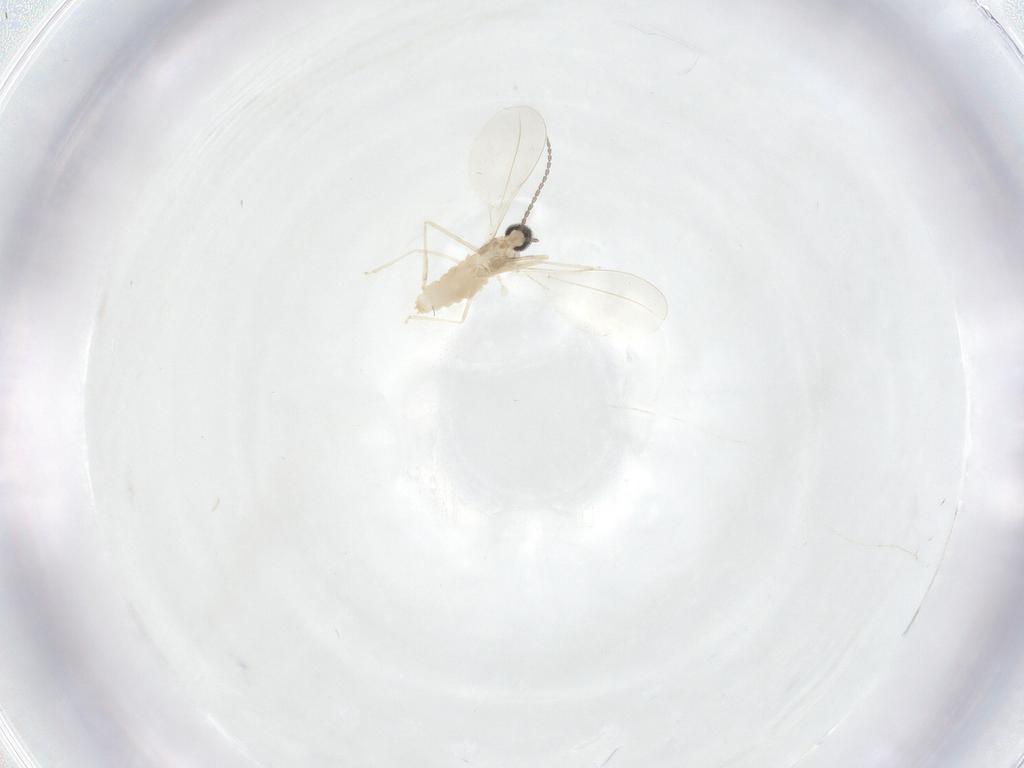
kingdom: Animalia
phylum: Arthropoda
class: Insecta
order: Diptera
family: Cecidomyiidae
